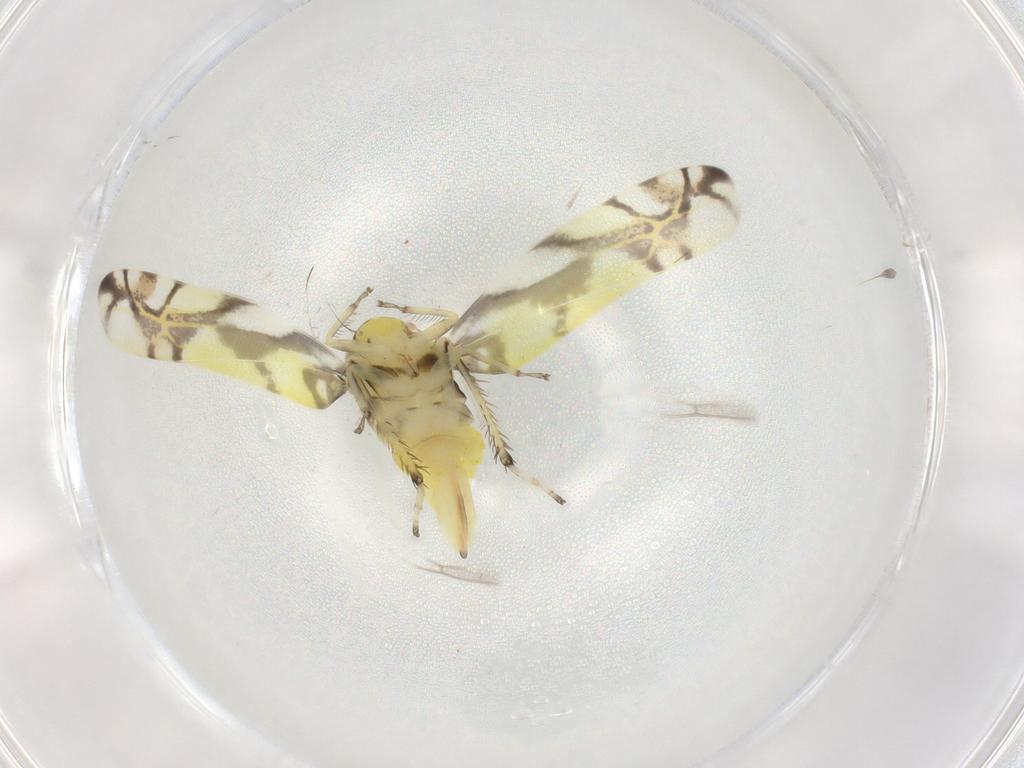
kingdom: Animalia
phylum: Arthropoda
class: Insecta
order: Hemiptera
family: Cicadellidae
